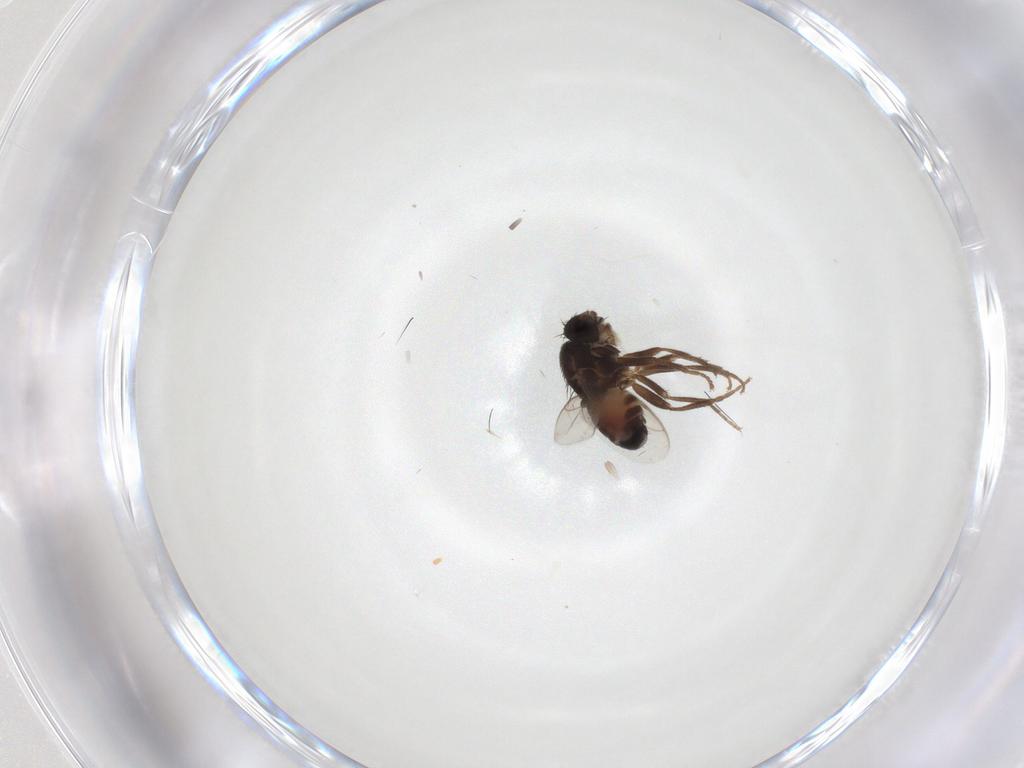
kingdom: Animalia
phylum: Arthropoda
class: Insecta
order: Diptera
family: Sphaeroceridae
